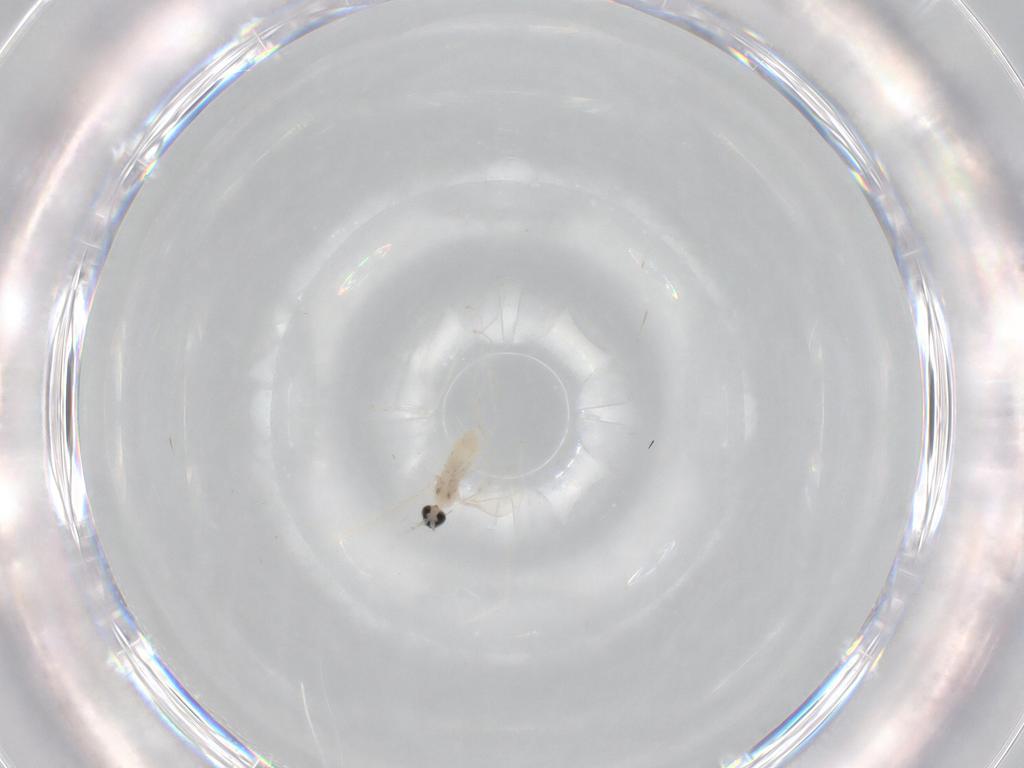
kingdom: Animalia
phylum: Arthropoda
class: Insecta
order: Diptera
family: Cecidomyiidae
